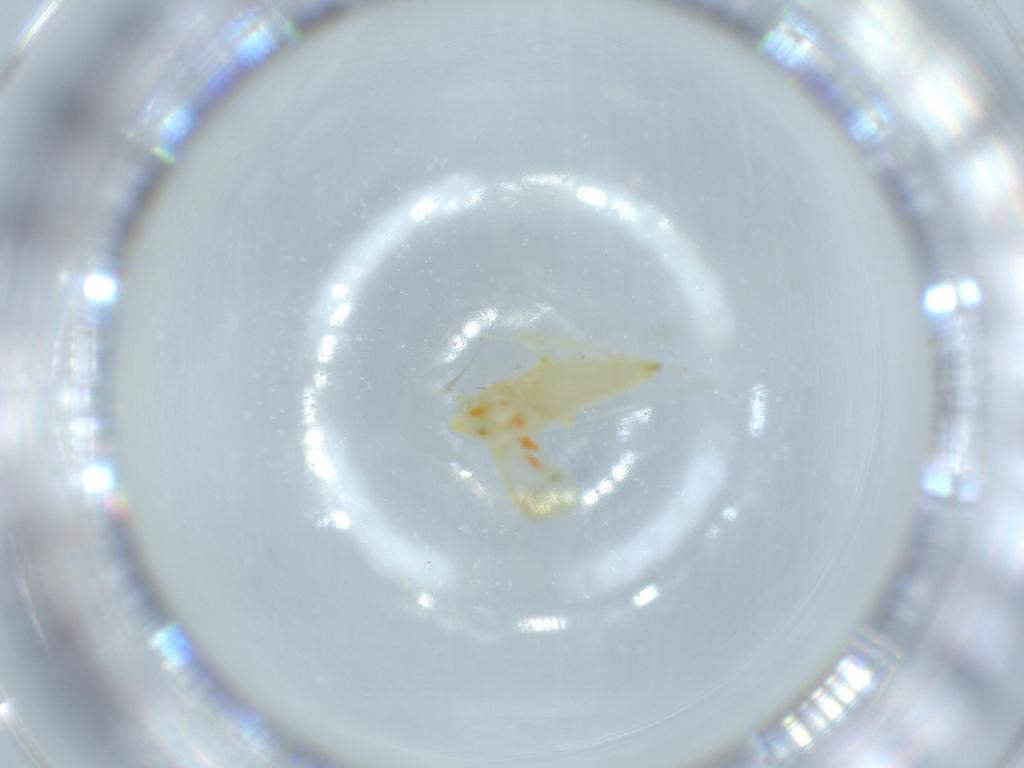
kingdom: Animalia
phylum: Arthropoda
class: Insecta
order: Hemiptera
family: Cicadellidae
